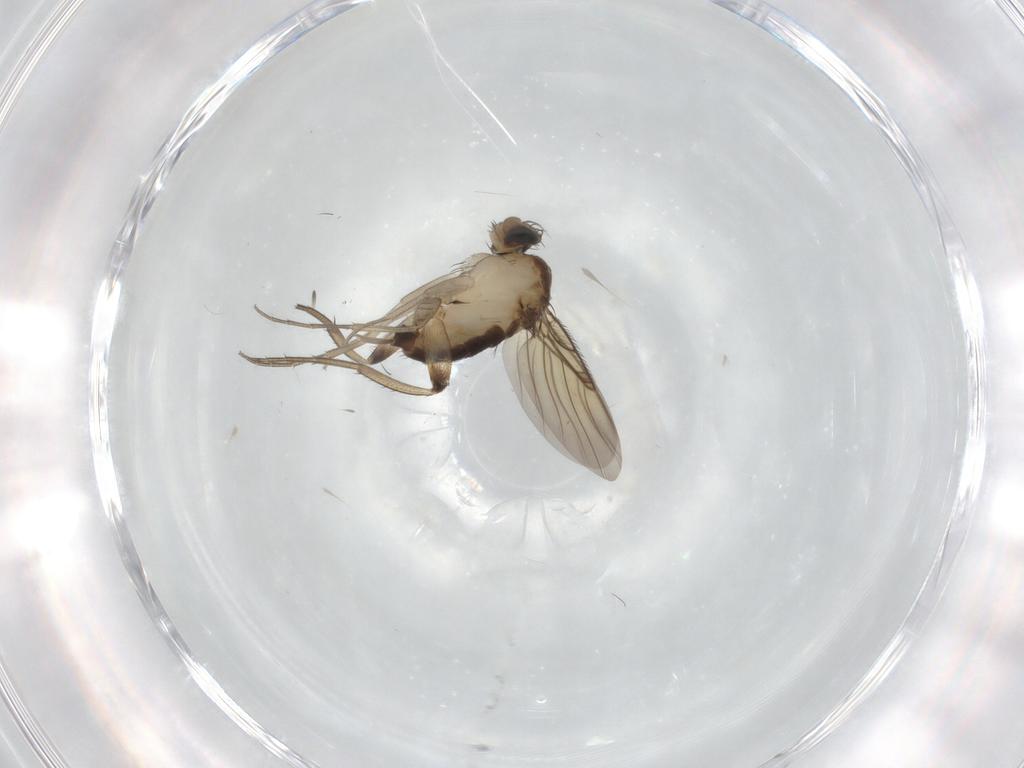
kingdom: Animalia
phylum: Arthropoda
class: Insecta
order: Diptera
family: Phoridae
